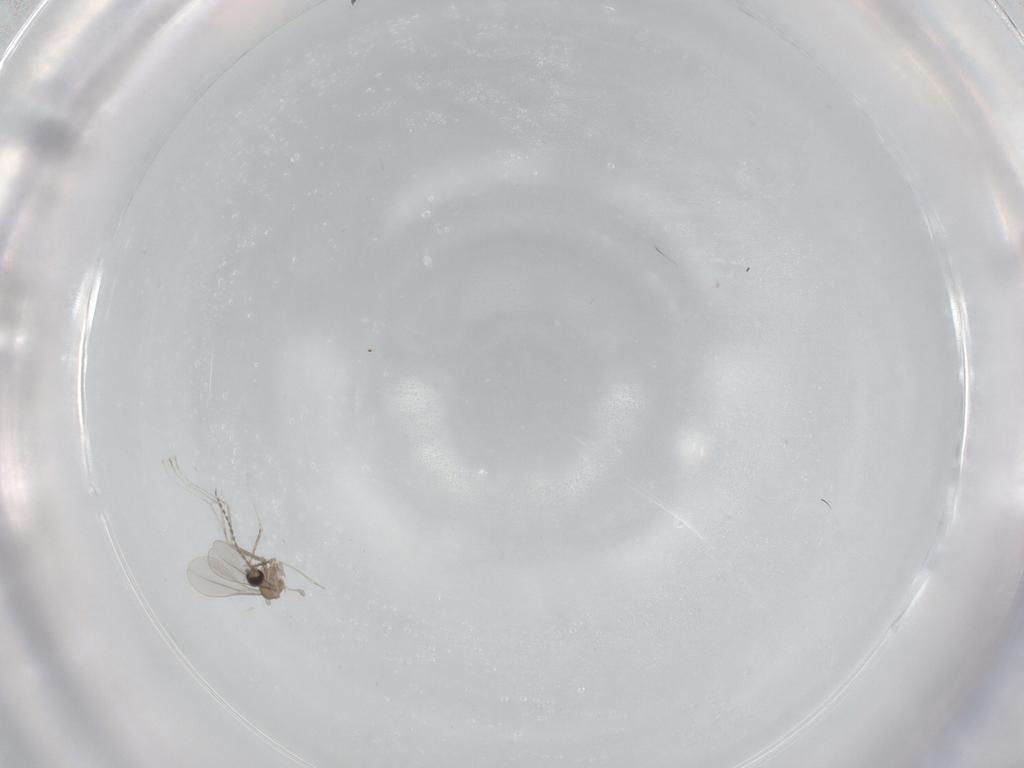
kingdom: Animalia
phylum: Arthropoda
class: Insecta
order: Diptera
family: Cecidomyiidae
